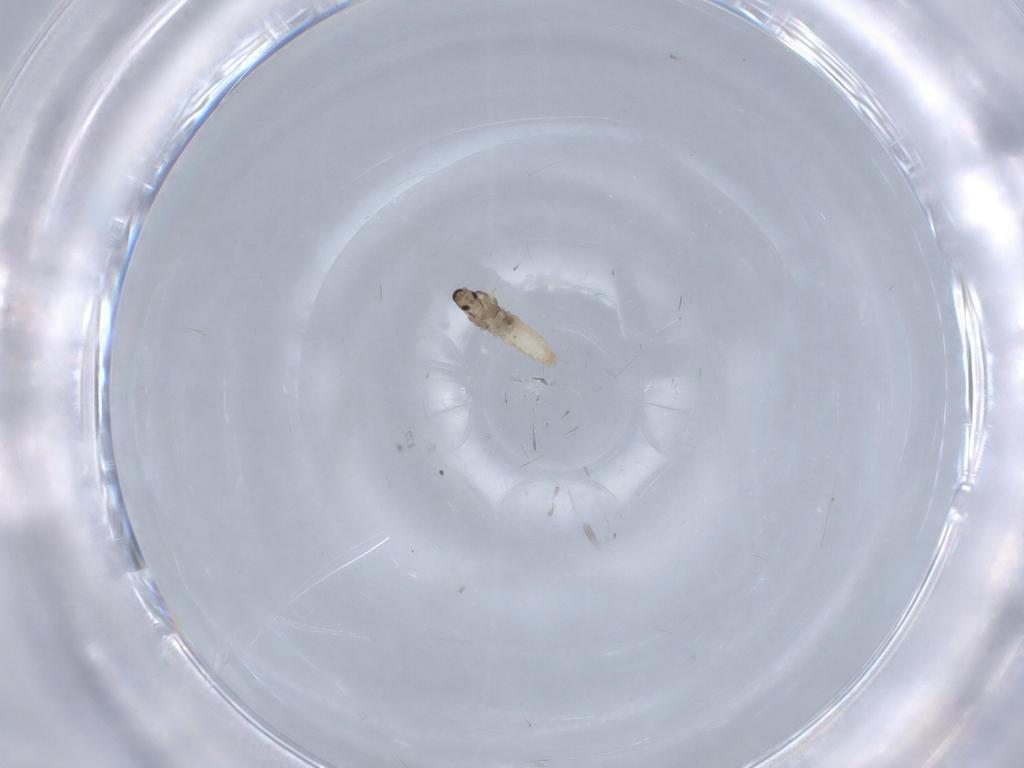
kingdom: Animalia
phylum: Arthropoda
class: Insecta
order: Diptera
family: Cecidomyiidae
